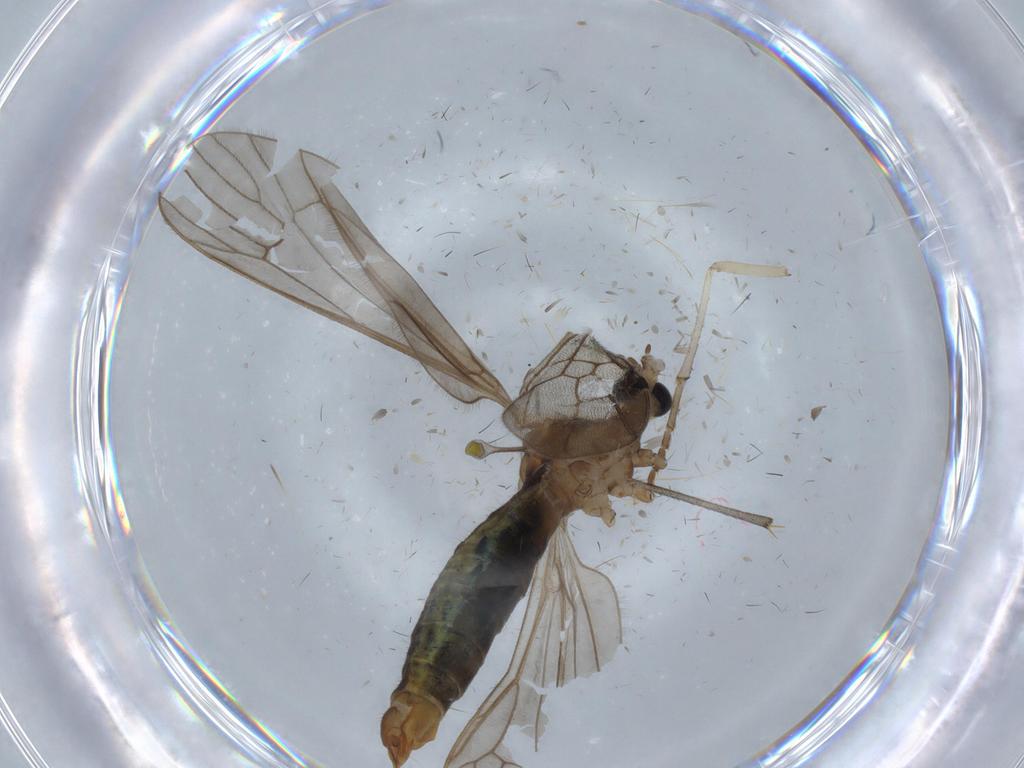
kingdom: Animalia
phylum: Arthropoda
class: Insecta
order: Diptera
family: Limoniidae
